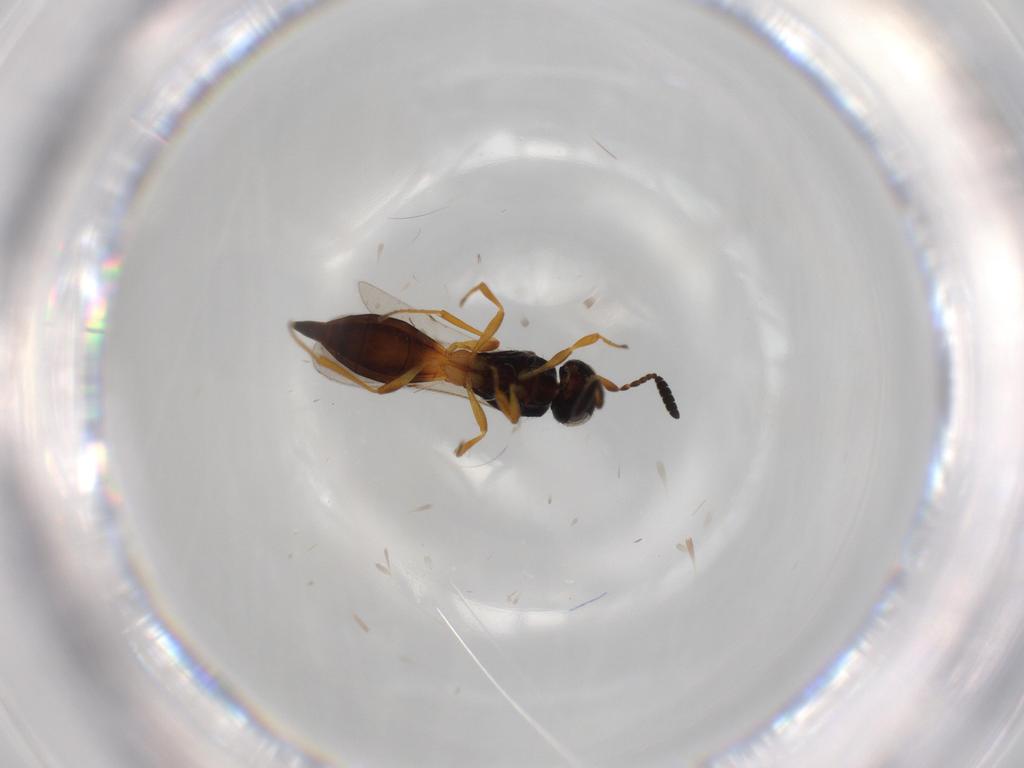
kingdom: Animalia
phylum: Arthropoda
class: Insecta
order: Hymenoptera
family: Scelionidae
